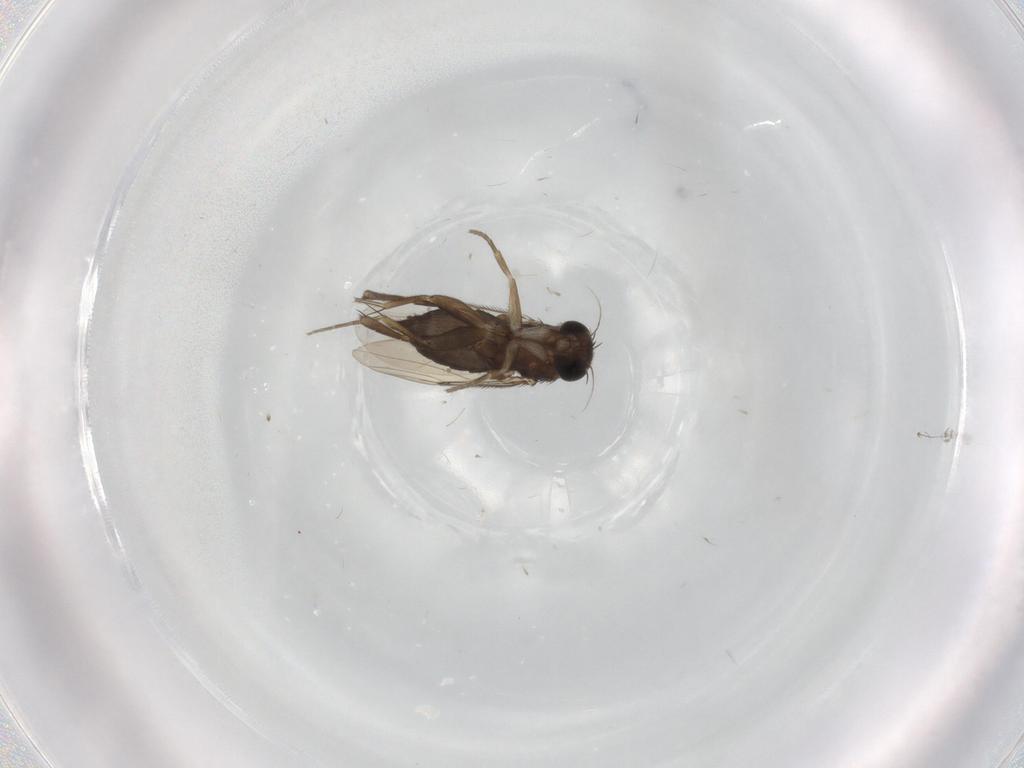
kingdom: Animalia
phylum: Arthropoda
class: Insecta
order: Diptera
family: Phoridae
